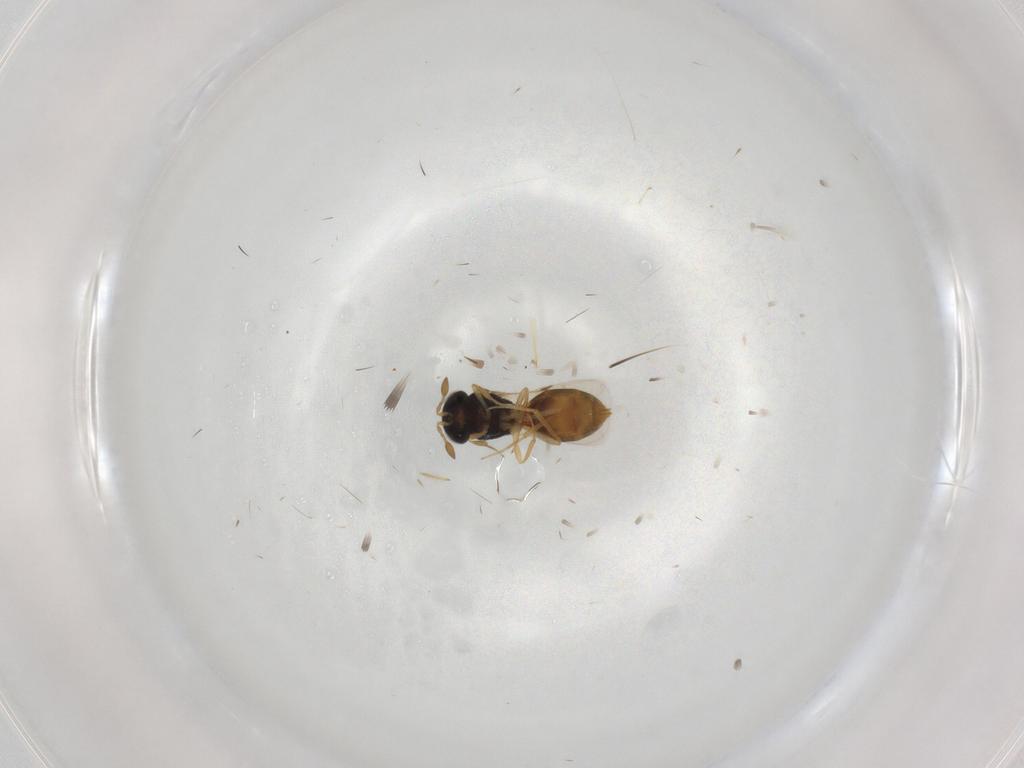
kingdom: Animalia
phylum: Arthropoda
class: Insecta
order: Hymenoptera
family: Scelionidae
